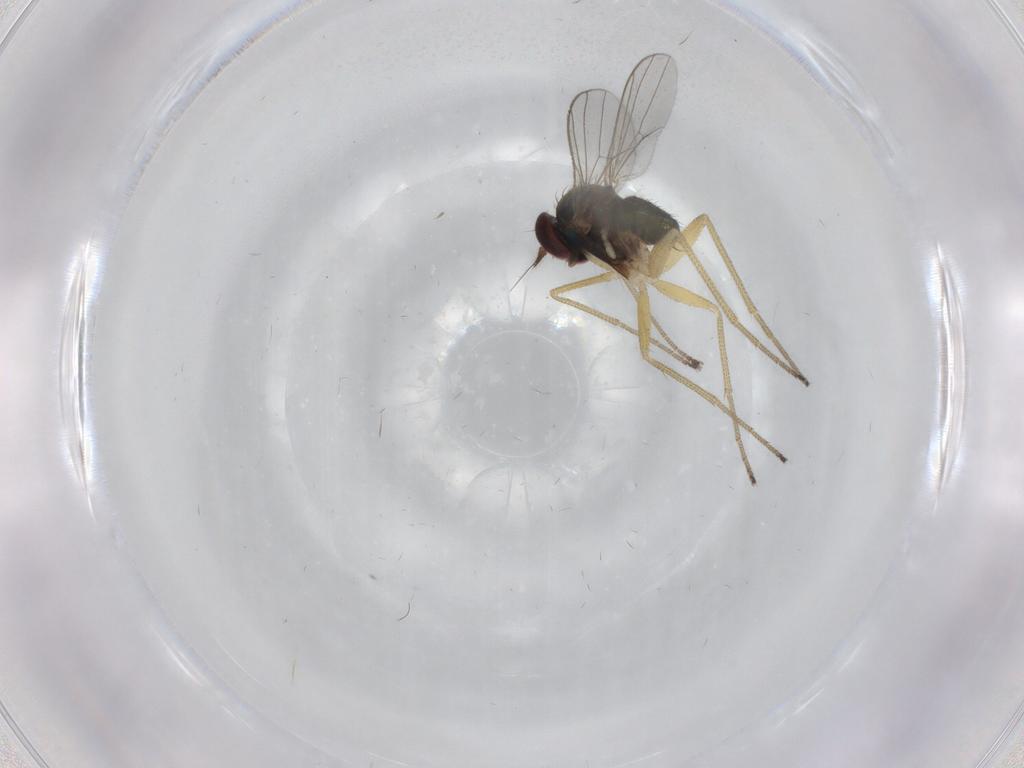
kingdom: Animalia
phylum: Arthropoda
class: Insecta
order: Diptera
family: Dolichopodidae
